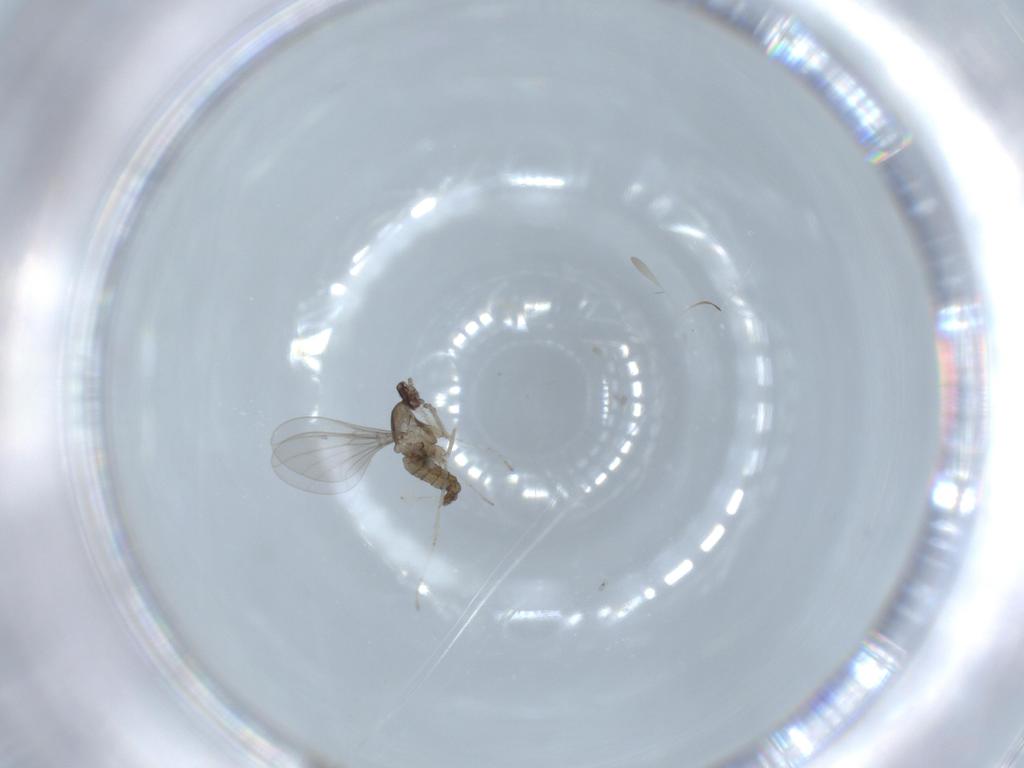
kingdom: Animalia
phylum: Arthropoda
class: Insecta
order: Diptera
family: Cecidomyiidae
